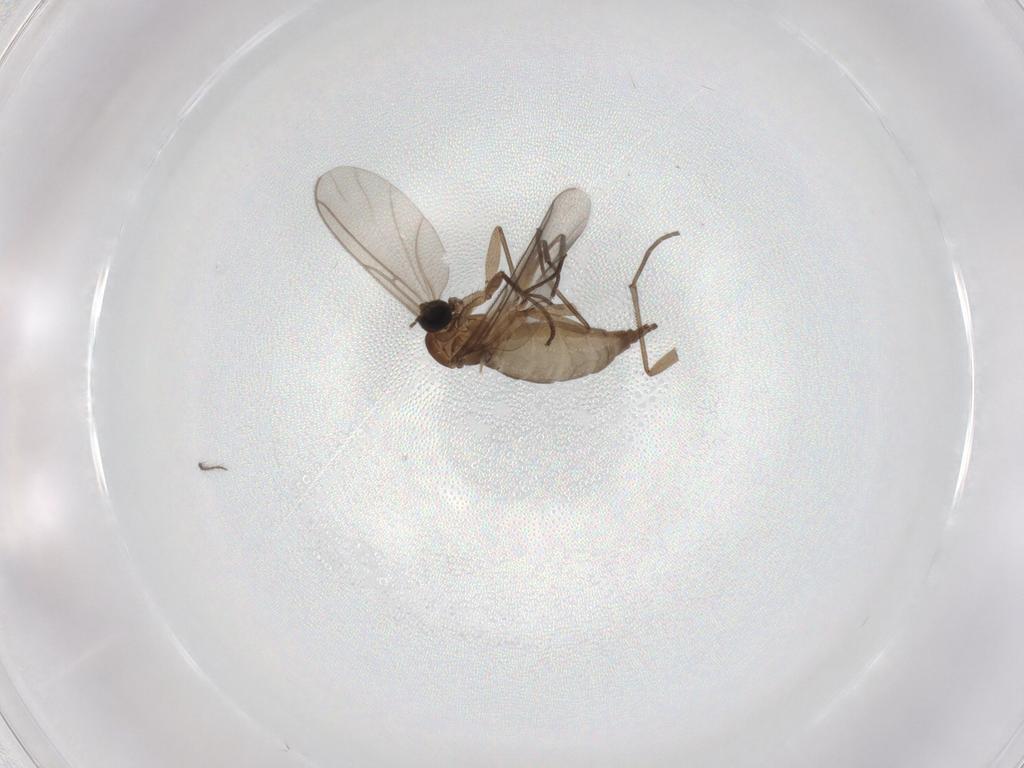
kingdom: Animalia
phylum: Arthropoda
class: Insecta
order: Diptera
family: Sciaridae
